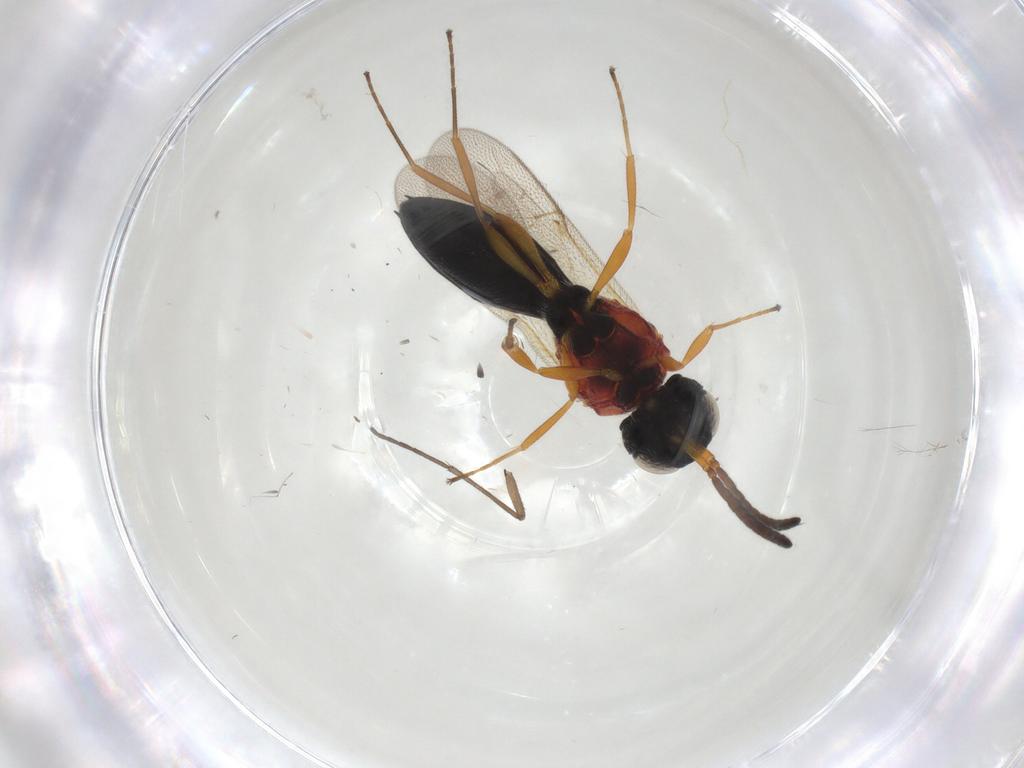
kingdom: Animalia
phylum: Arthropoda
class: Insecta
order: Hymenoptera
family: Scelionidae
